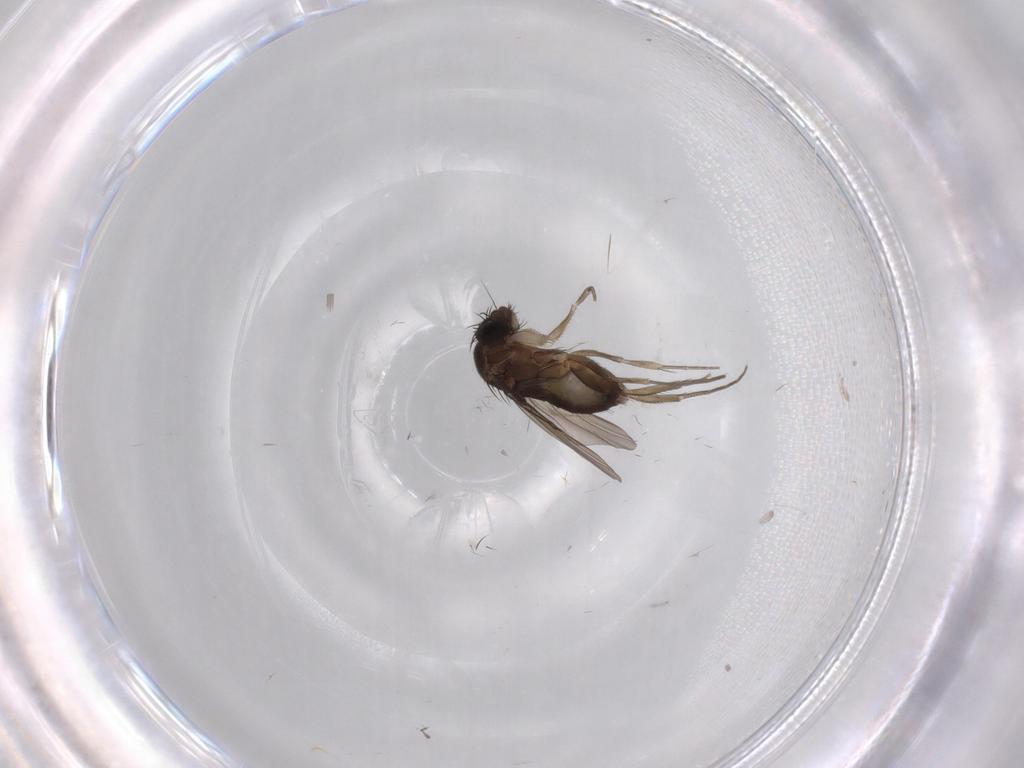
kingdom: Animalia
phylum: Arthropoda
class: Insecta
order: Diptera
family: Phoridae
